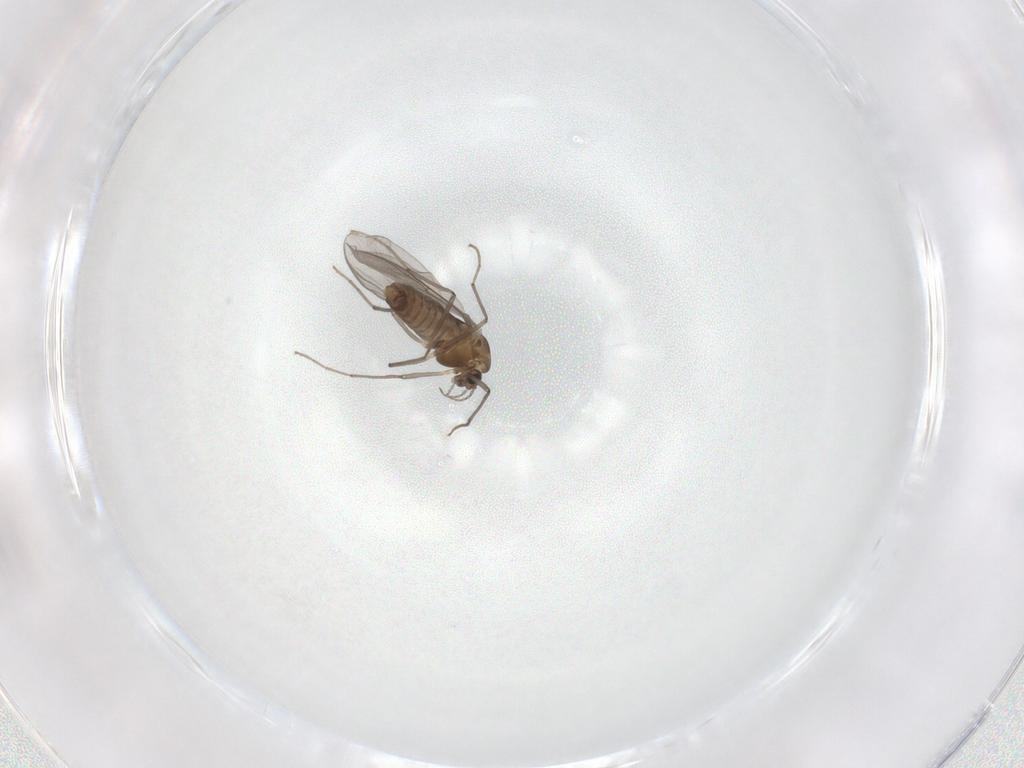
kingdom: Animalia
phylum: Arthropoda
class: Insecta
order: Diptera
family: Chironomidae
